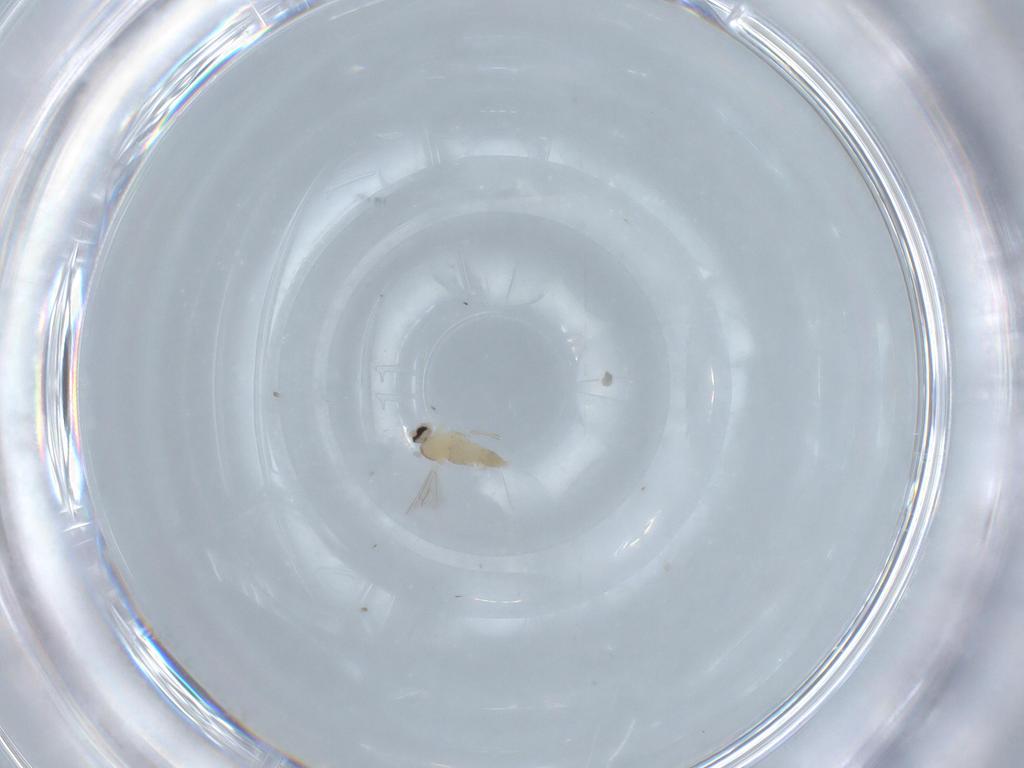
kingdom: Animalia
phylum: Arthropoda
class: Insecta
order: Diptera
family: Cecidomyiidae
